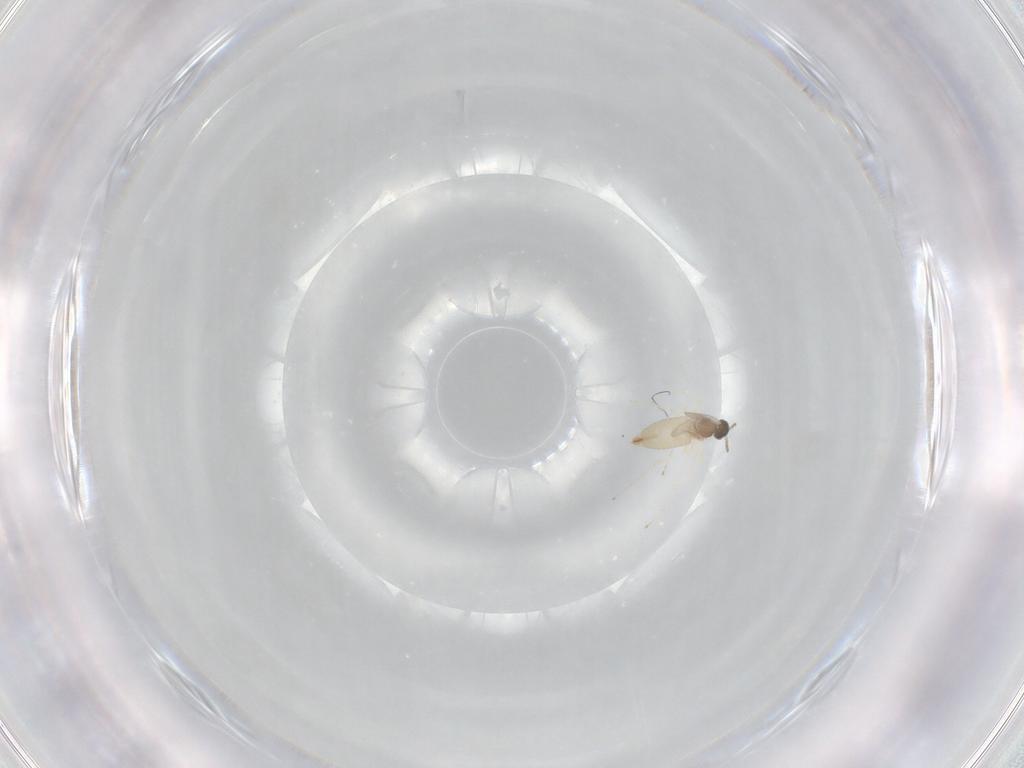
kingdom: Animalia
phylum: Arthropoda
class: Insecta
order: Diptera
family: Cecidomyiidae
